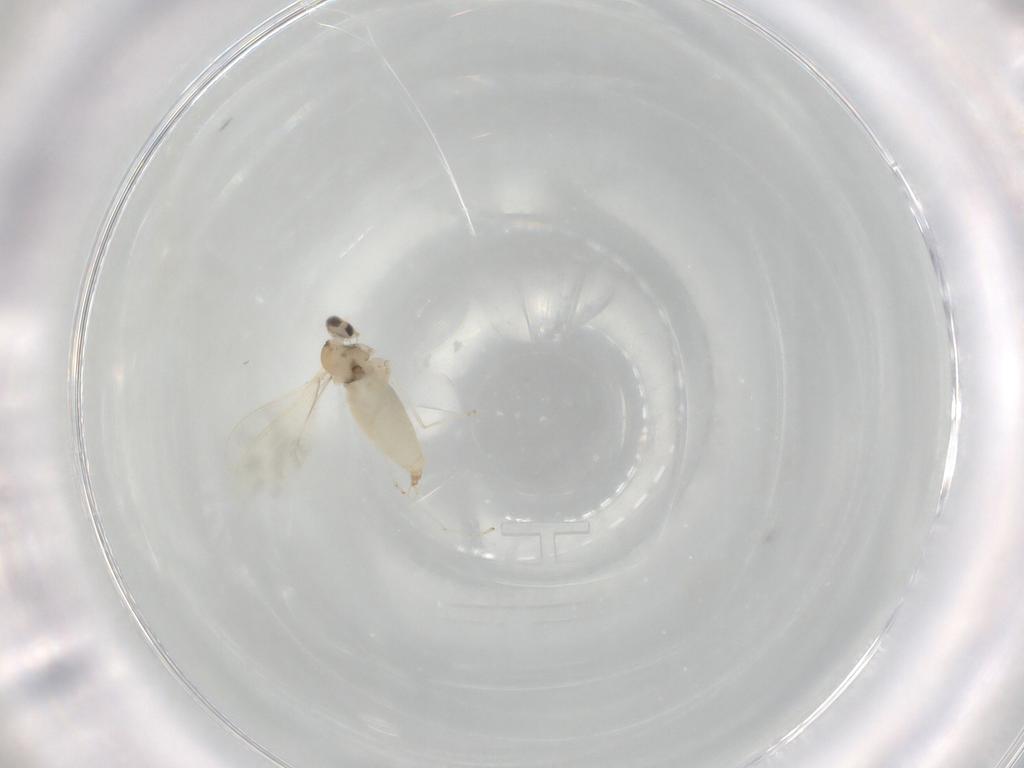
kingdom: Animalia
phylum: Arthropoda
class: Insecta
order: Diptera
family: Cecidomyiidae
